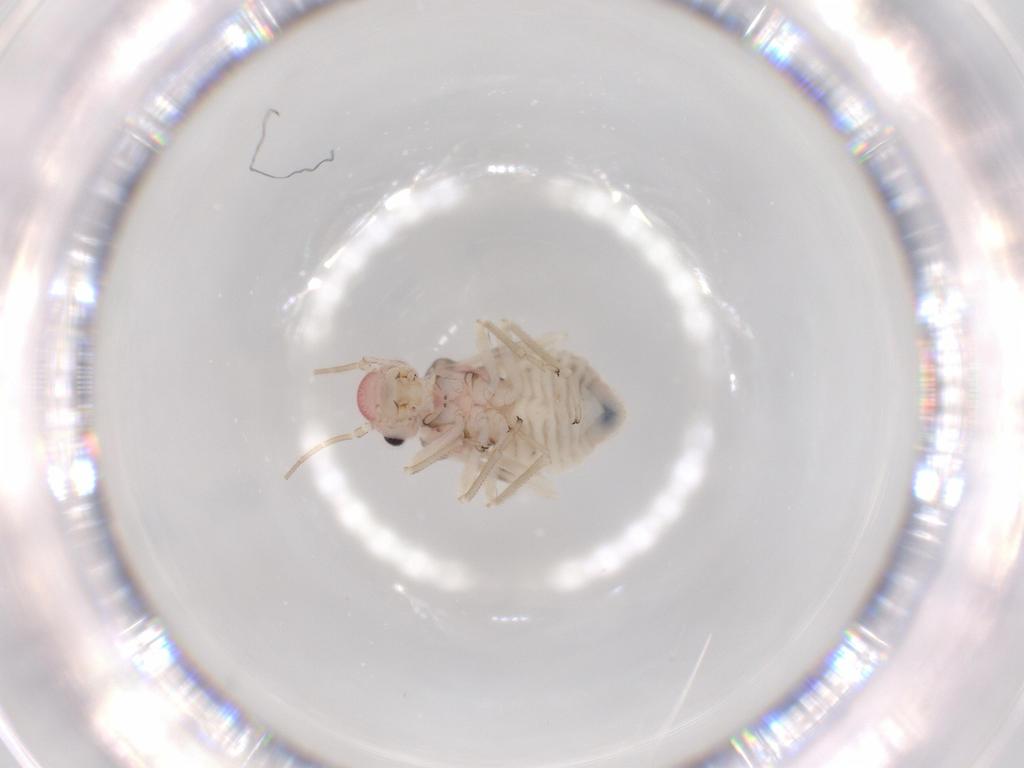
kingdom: Animalia
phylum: Arthropoda
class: Insecta
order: Psocodea
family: Amphipsocidae
